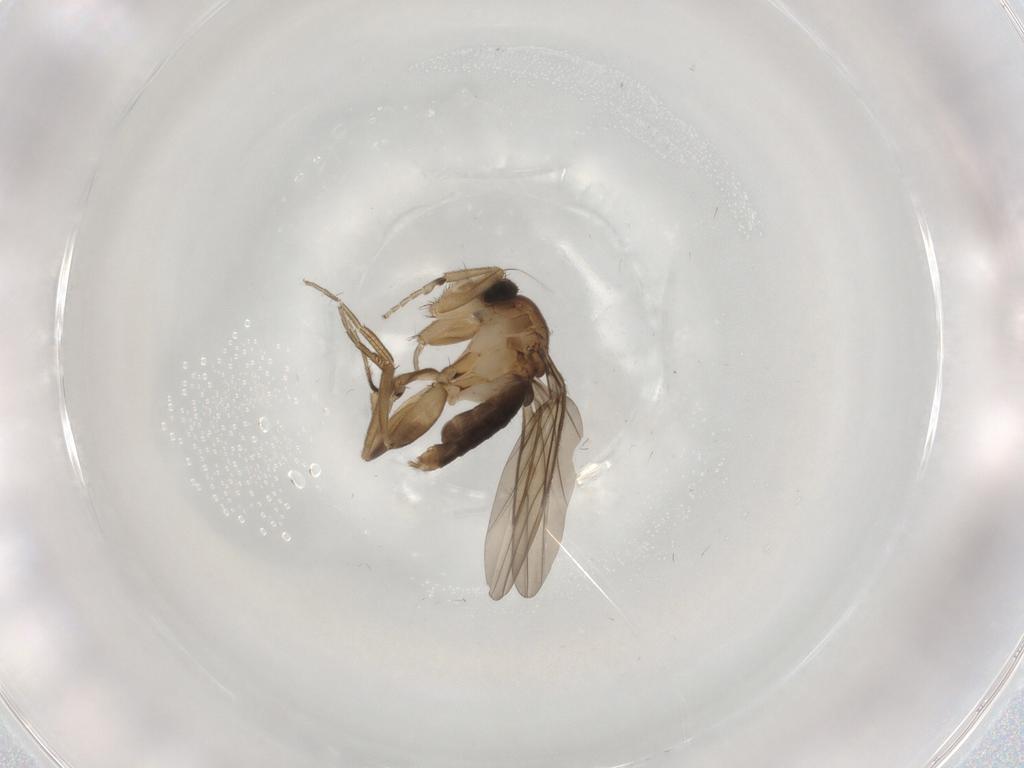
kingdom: Animalia
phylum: Arthropoda
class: Insecta
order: Diptera
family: Phoridae
